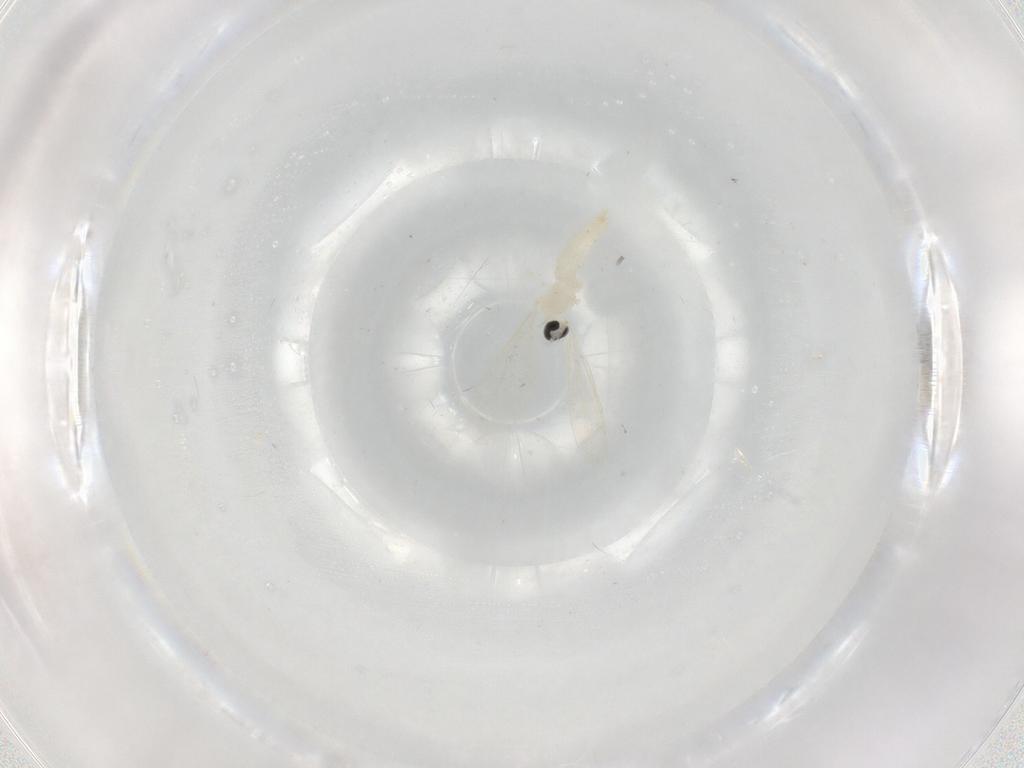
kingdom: Animalia
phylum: Arthropoda
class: Insecta
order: Diptera
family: Cecidomyiidae
